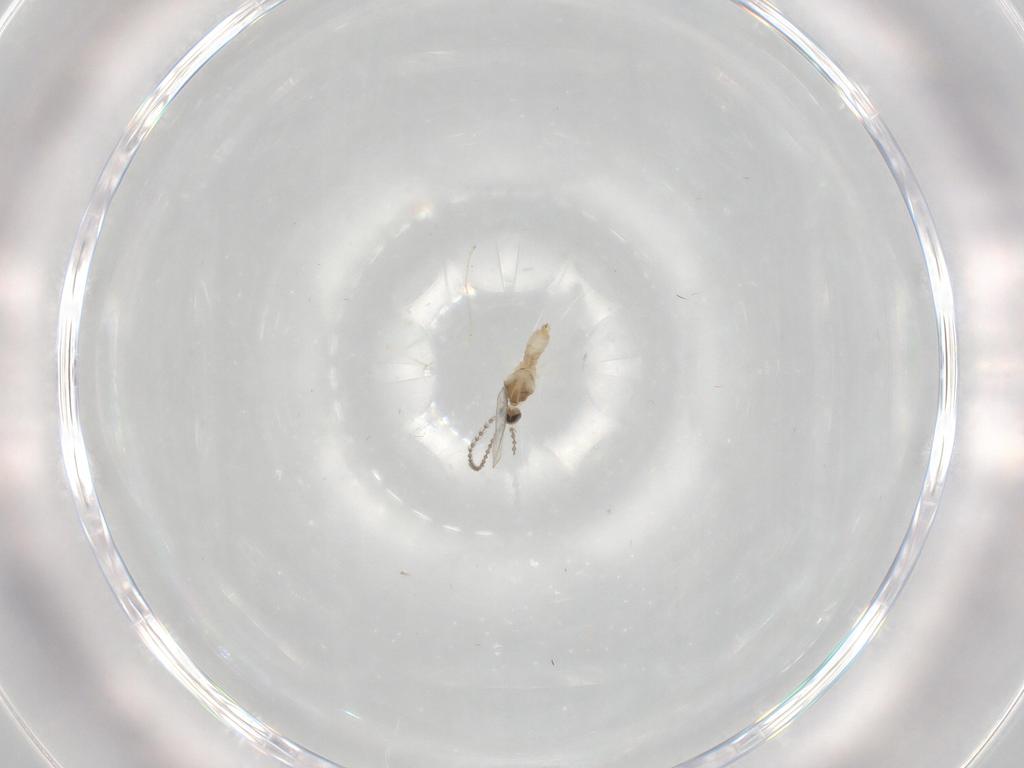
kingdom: Animalia
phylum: Arthropoda
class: Insecta
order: Diptera
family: Cecidomyiidae
